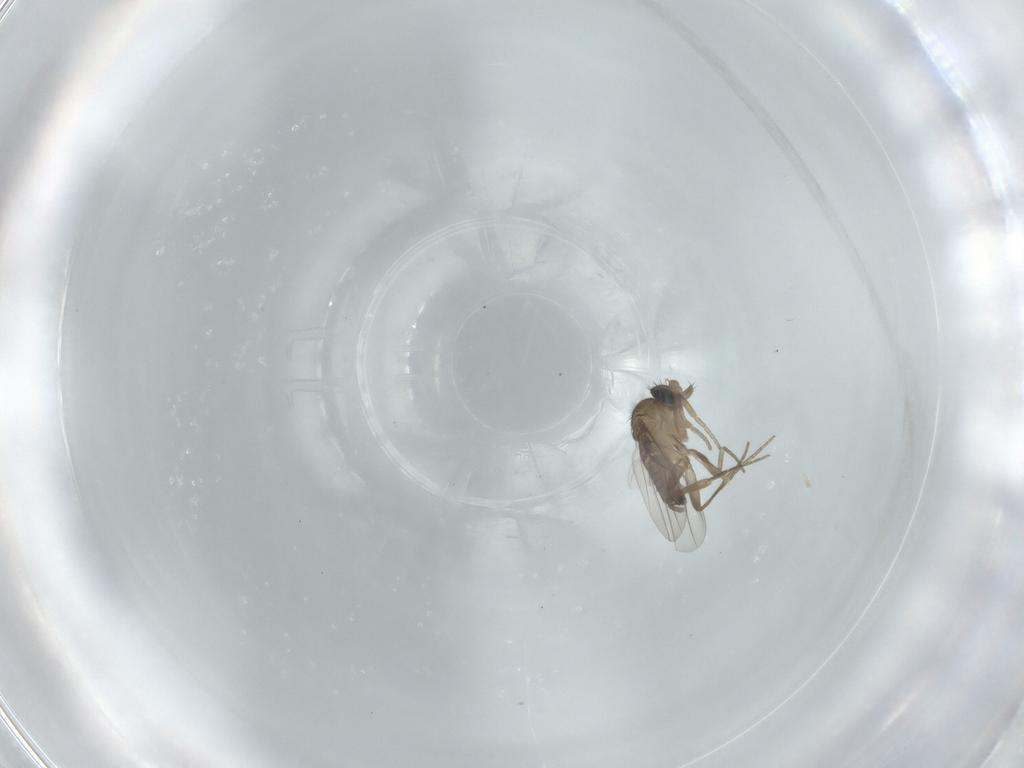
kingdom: Animalia
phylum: Arthropoda
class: Insecta
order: Diptera
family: Phoridae
